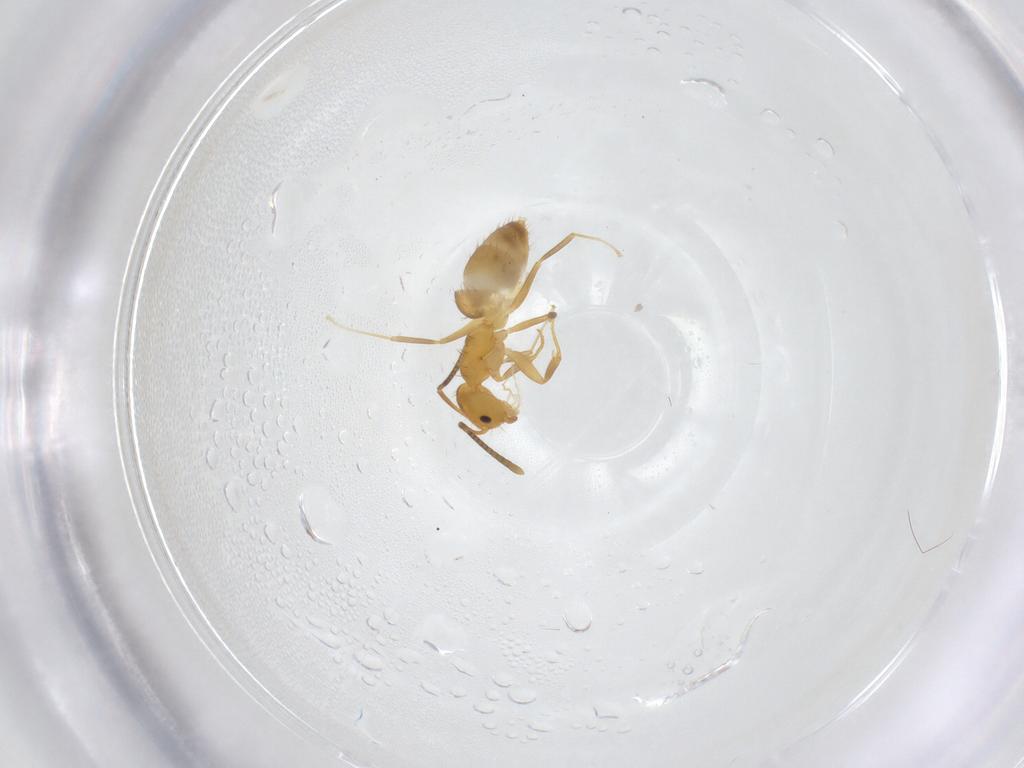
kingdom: Animalia
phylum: Arthropoda
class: Insecta
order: Hymenoptera
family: Formicidae
